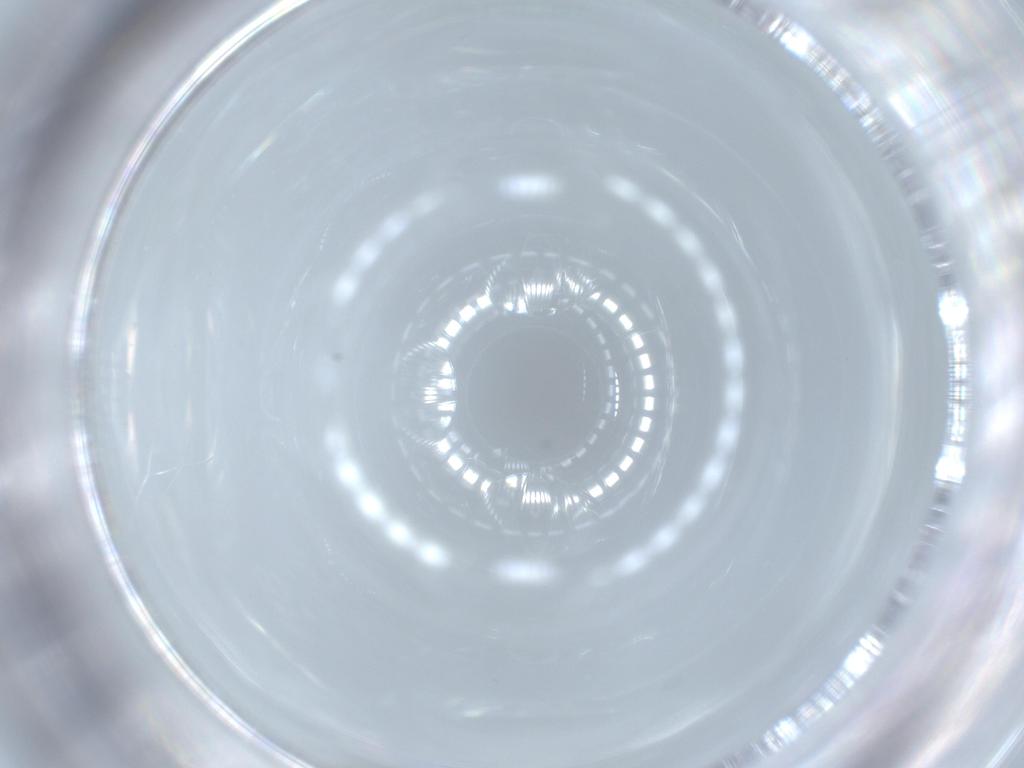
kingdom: Animalia
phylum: Arthropoda
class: Insecta
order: Diptera
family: Cecidomyiidae
